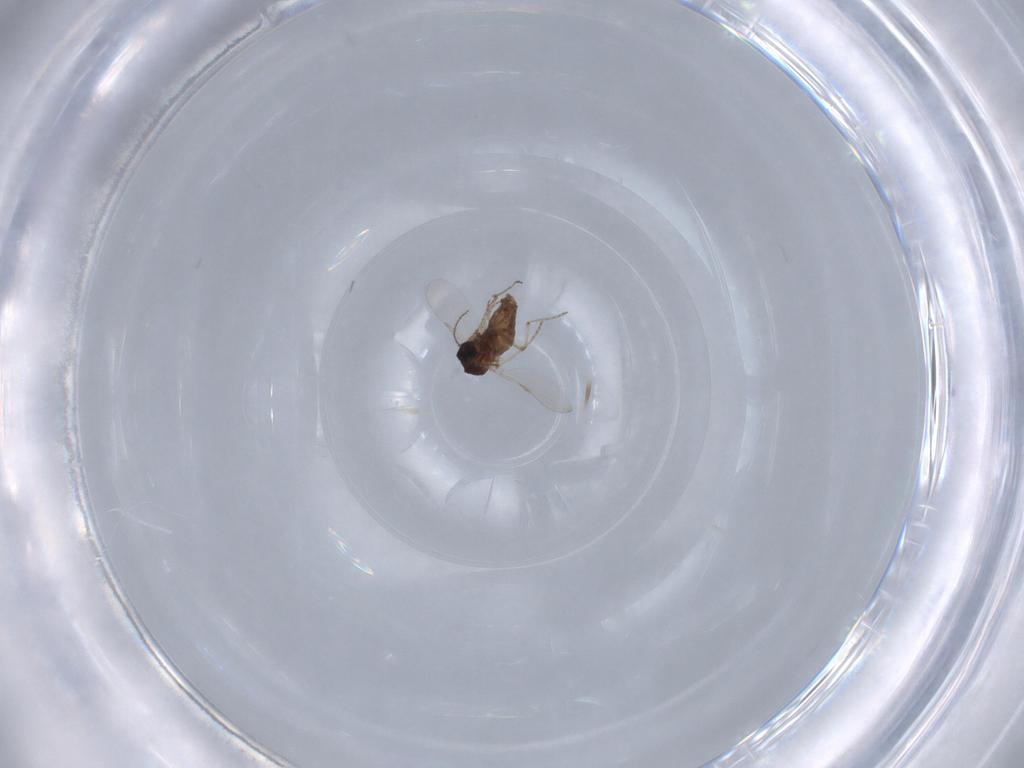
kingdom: Animalia
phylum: Arthropoda
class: Insecta
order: Diptera
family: Ceratopogonidae
